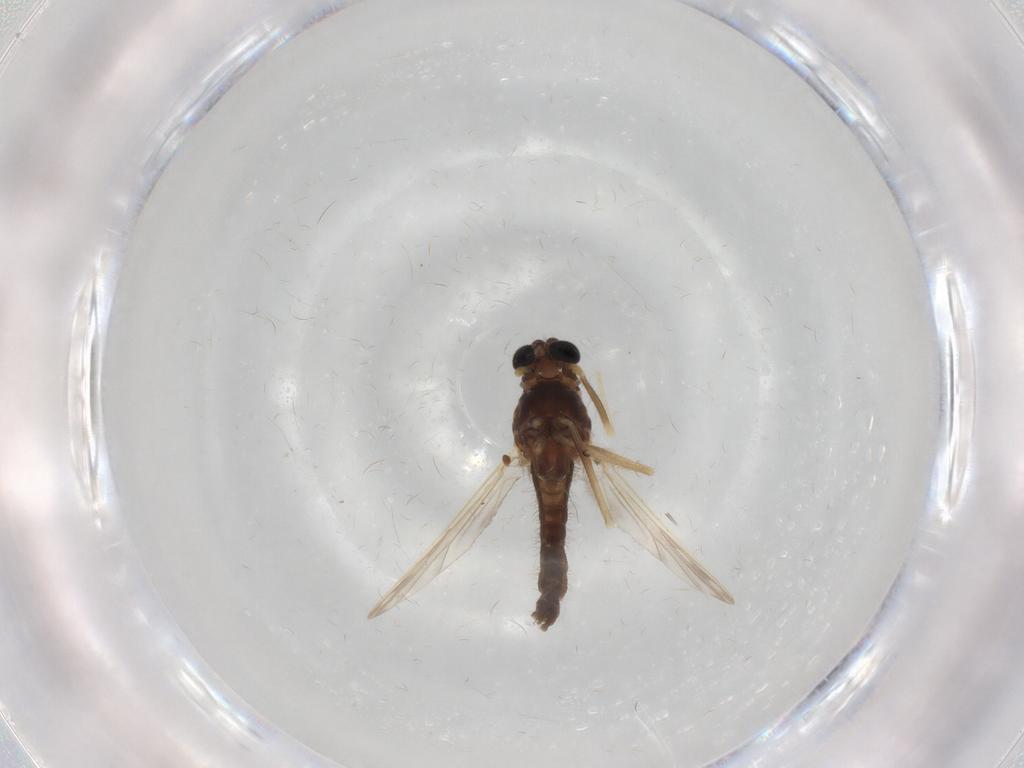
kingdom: Animalia
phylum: Arthropoda
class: Insecta
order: Diptera
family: Chironomidae
